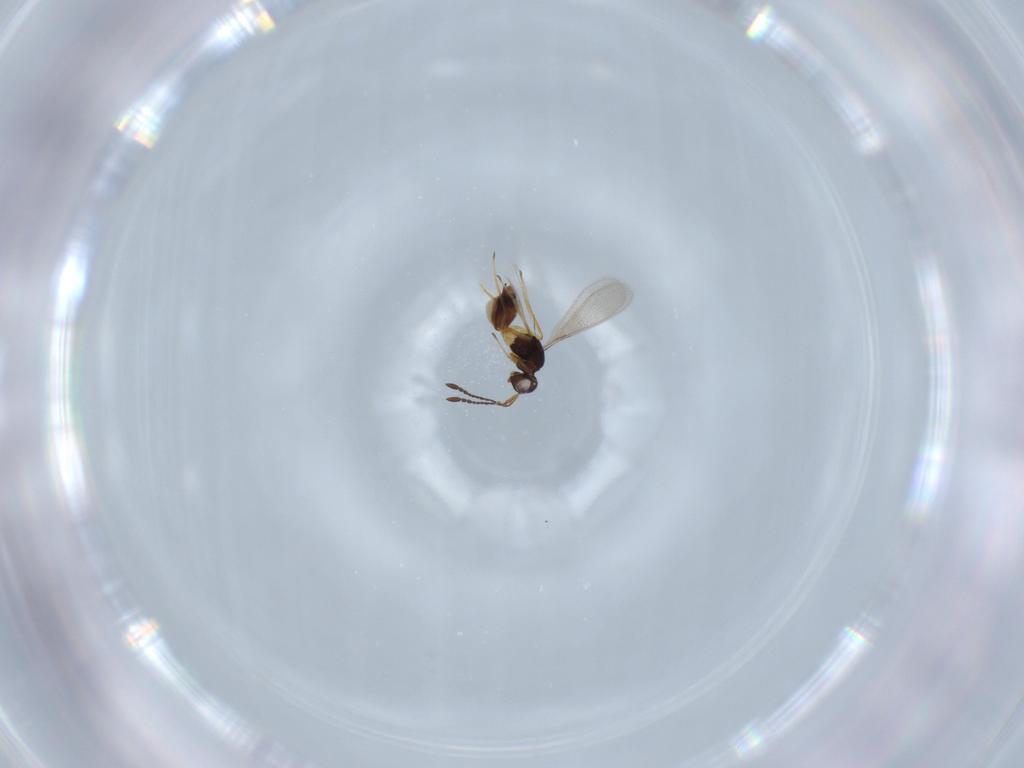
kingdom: Animalia
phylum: Arthropoda
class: Insecta
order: Hymenoptera
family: Mymaridae
